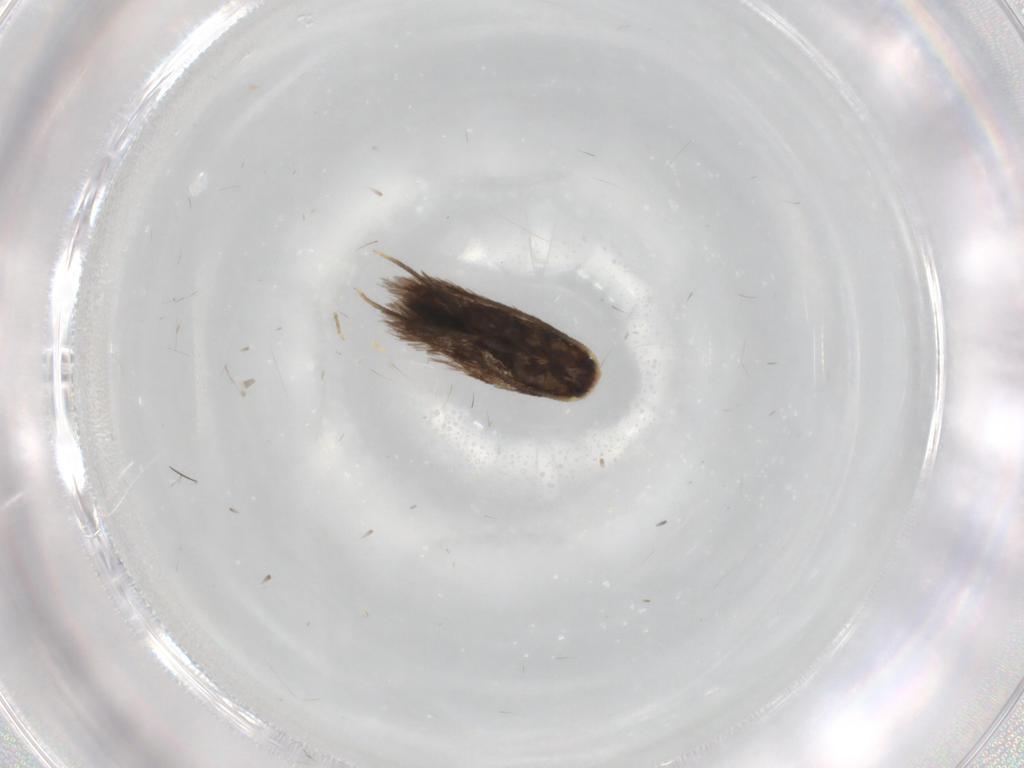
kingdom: Animalia
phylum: Arthropoda
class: Insecta
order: Lepidoptera
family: Nepticulidae
